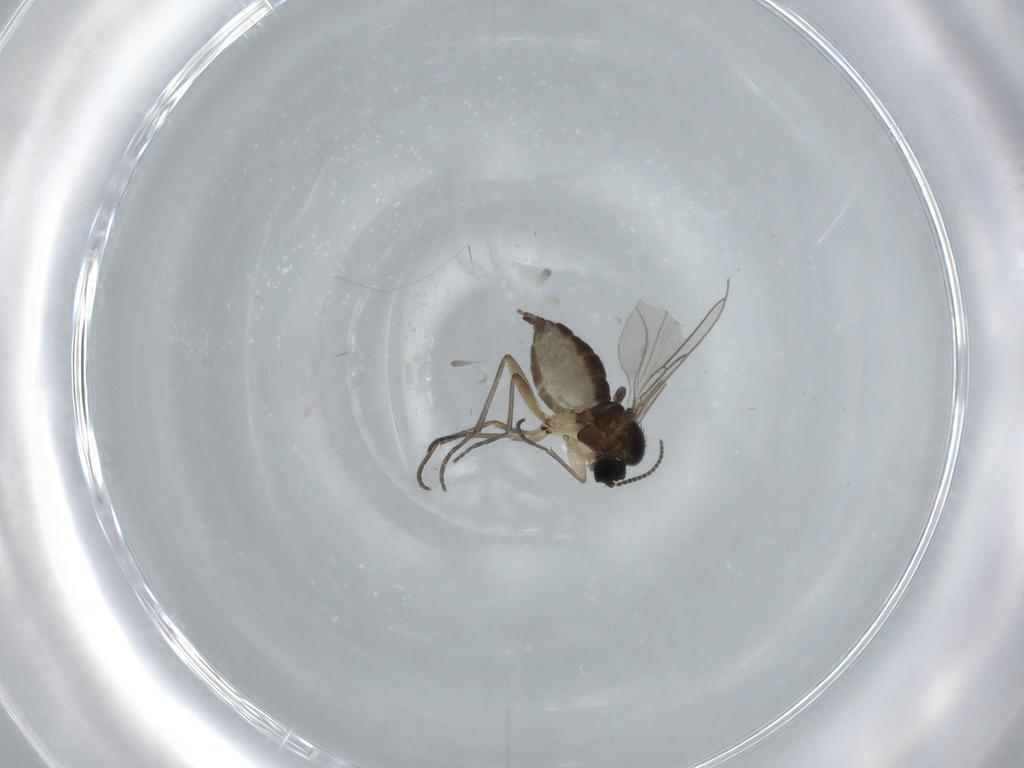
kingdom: Animalia
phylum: Arthropoda
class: Insecta
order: Diptera
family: Sciaridae
